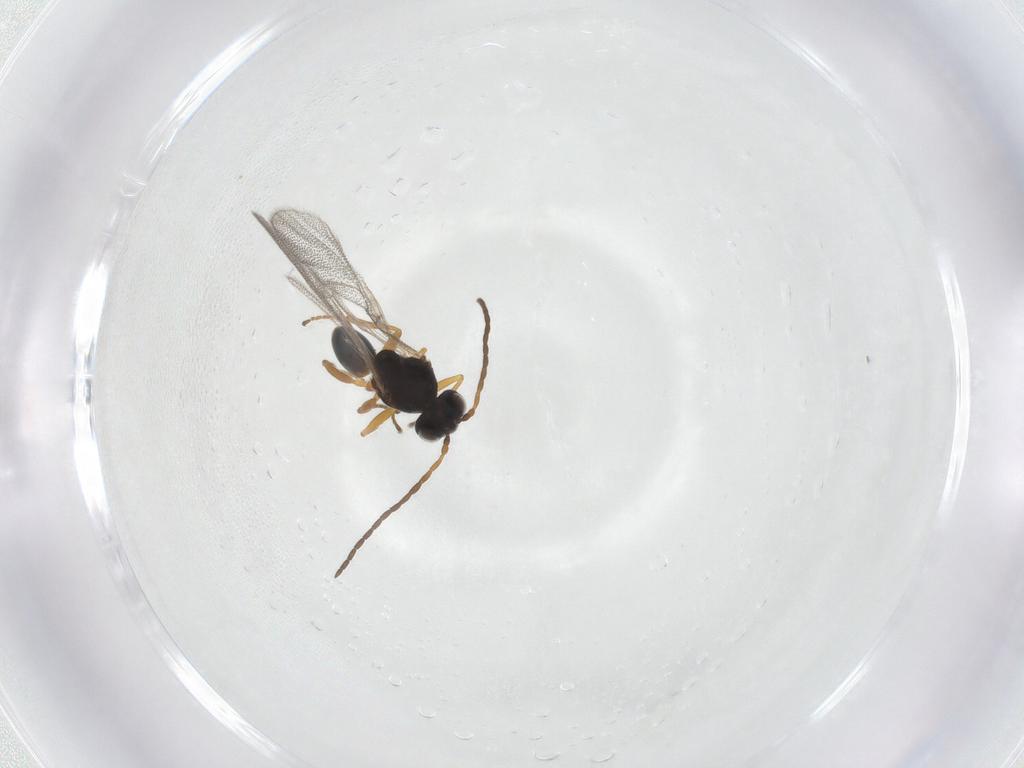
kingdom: Animalia
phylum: Arthropoda
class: Insecta
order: Hymenoptera
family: Cynipidae
